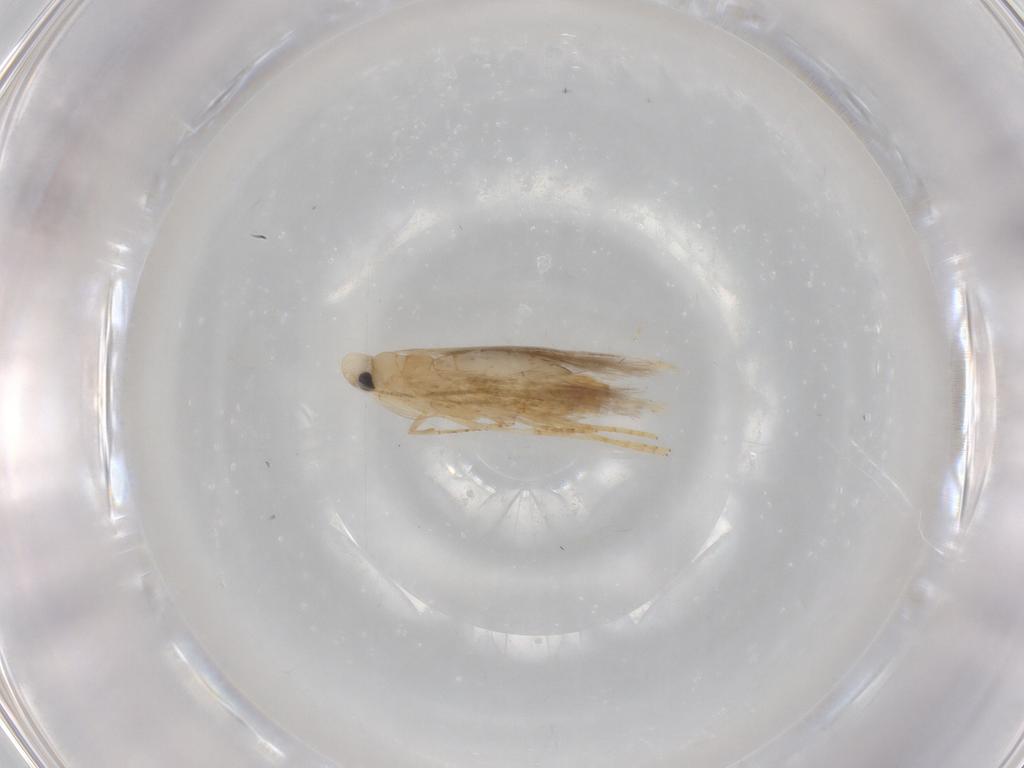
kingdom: Animalia
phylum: Arthropoda
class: Insecta
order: Lepidoptera
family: Tischeriidae
